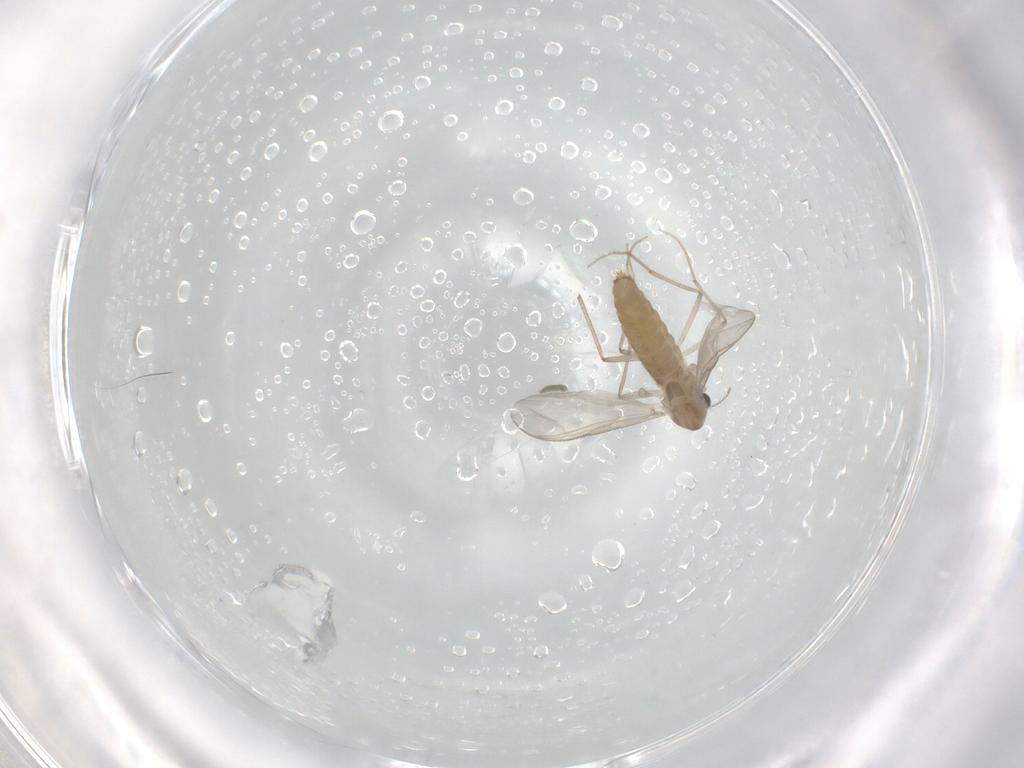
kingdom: Animalia
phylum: Arthropoda
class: Insecta
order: Diptera
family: Chironomidae
